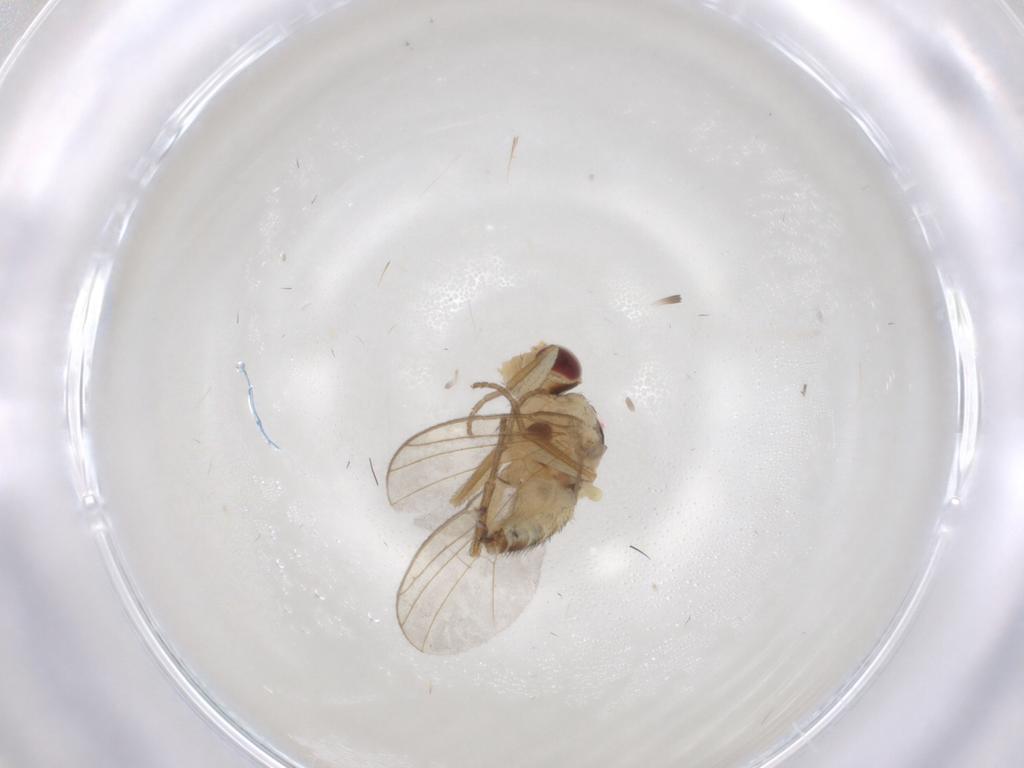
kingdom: Animalia
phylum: Arthropoda
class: Insecta
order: Diptera
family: Agromyzidae
